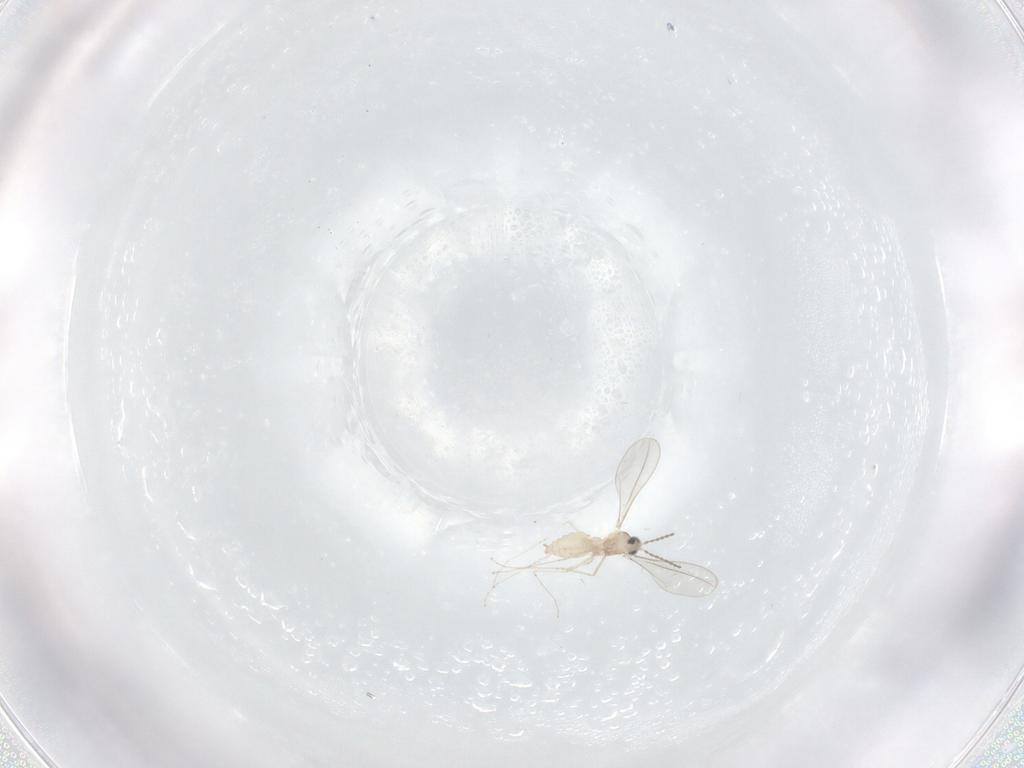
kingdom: Animalia
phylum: Arthropoda
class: Insecta
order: Diptera
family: Cecidomyiidae
